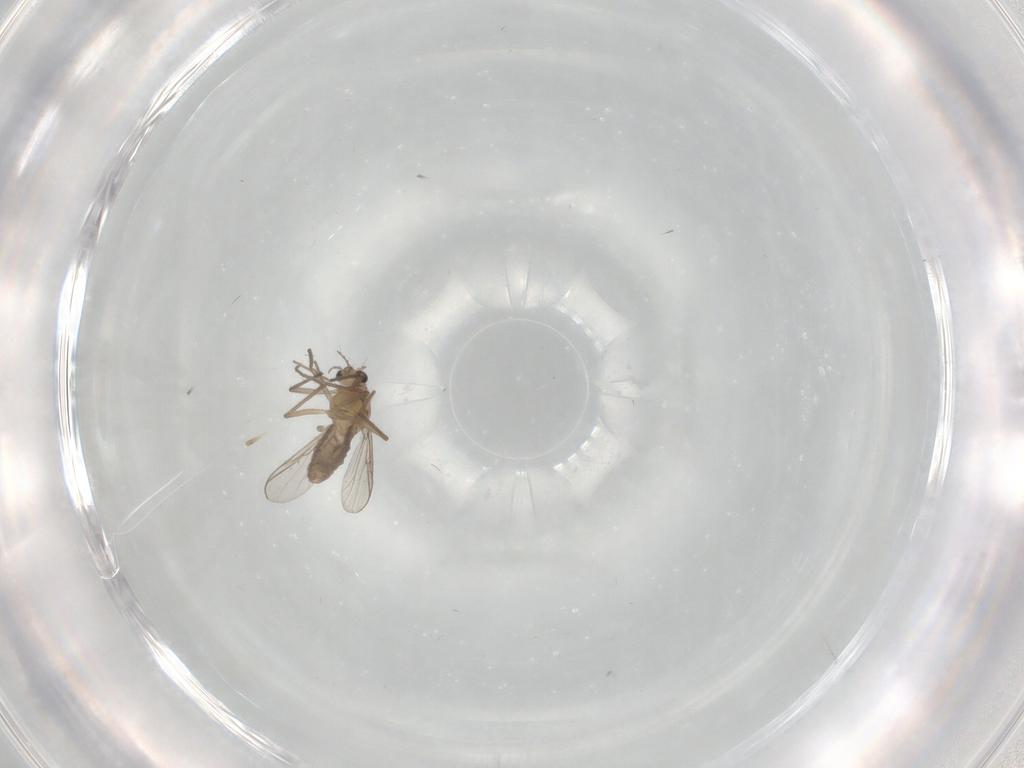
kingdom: Animalia
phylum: Arthropoda
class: Insecta
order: Diptera
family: Chironomidae
